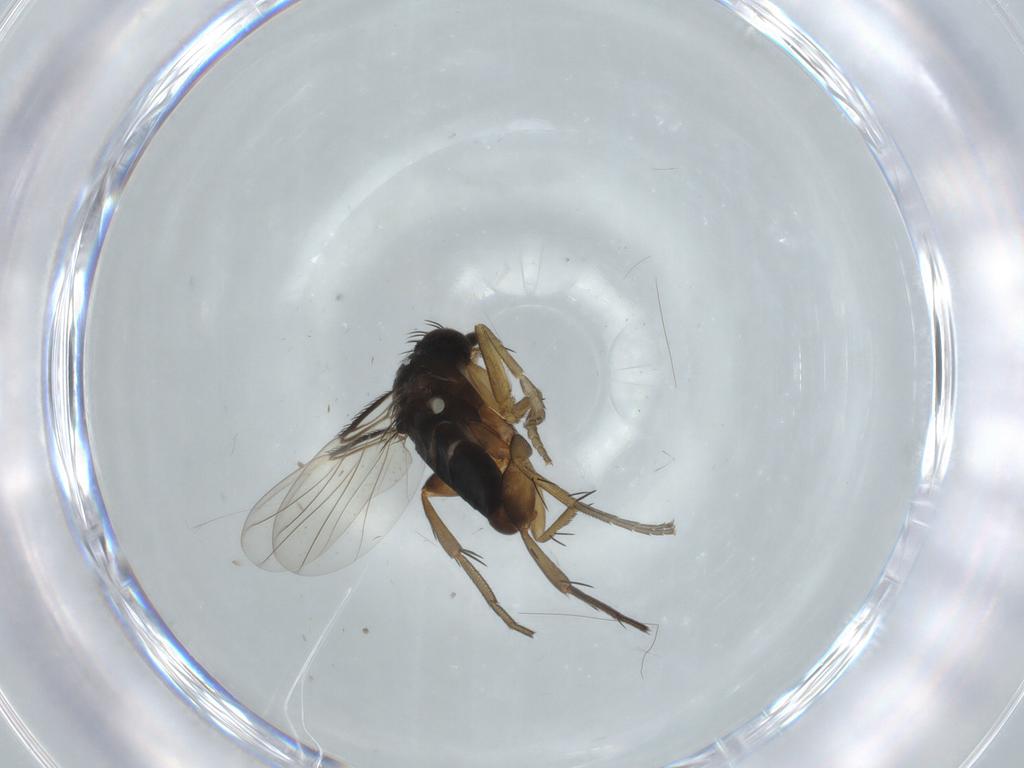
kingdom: Animalia
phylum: Arthropoda
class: Insecta
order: Diptera
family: Phoridae
